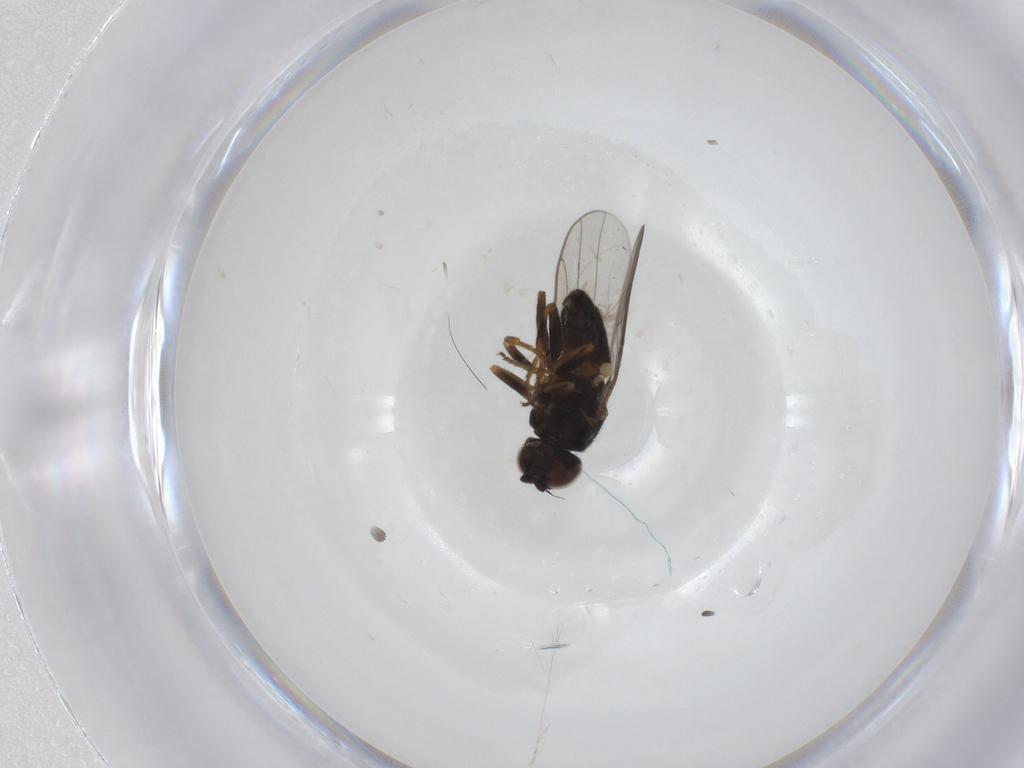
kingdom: Animalia
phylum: Arthropoda
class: Insecta
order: Diptera
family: Chloropidae
